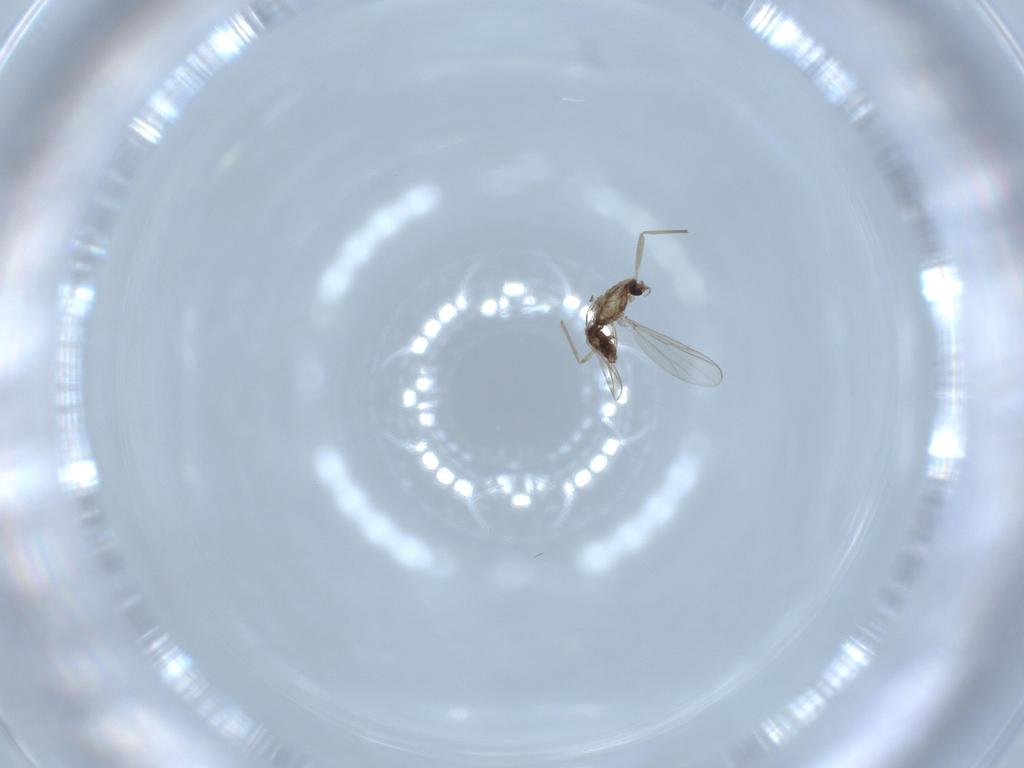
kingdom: Animalia
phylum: Arthropoda
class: Insecta
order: Diptera
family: Chironomidae
